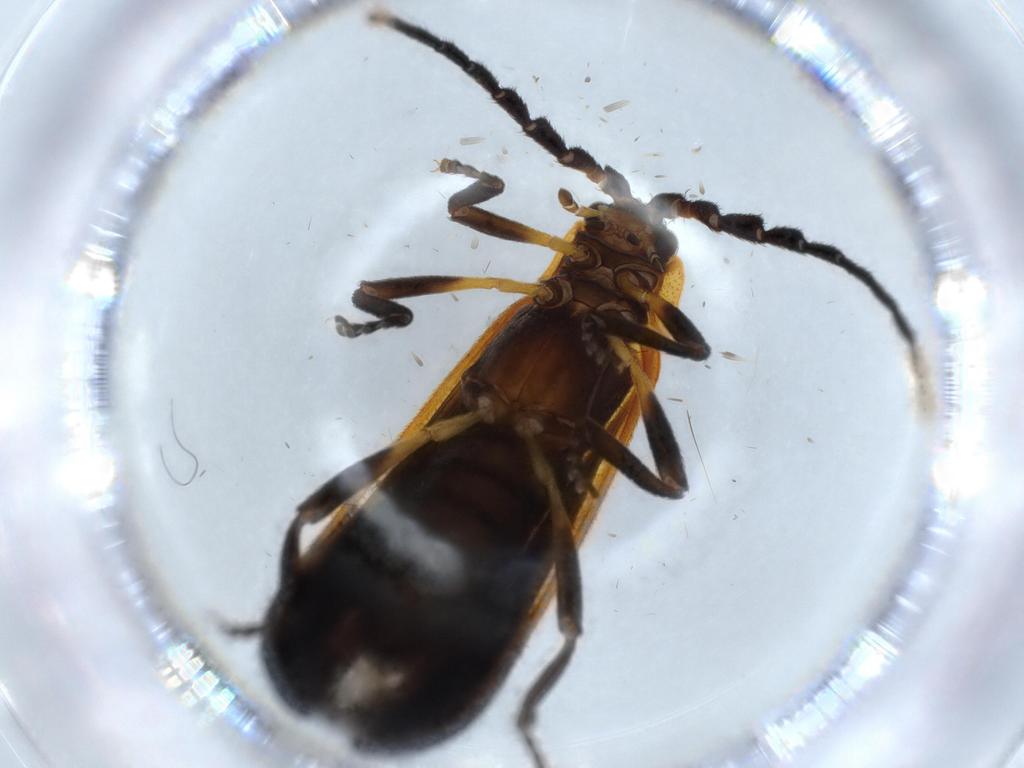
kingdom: Animalia
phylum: Arthropoda
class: Insecta
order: Coleoptera
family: Lycidae
